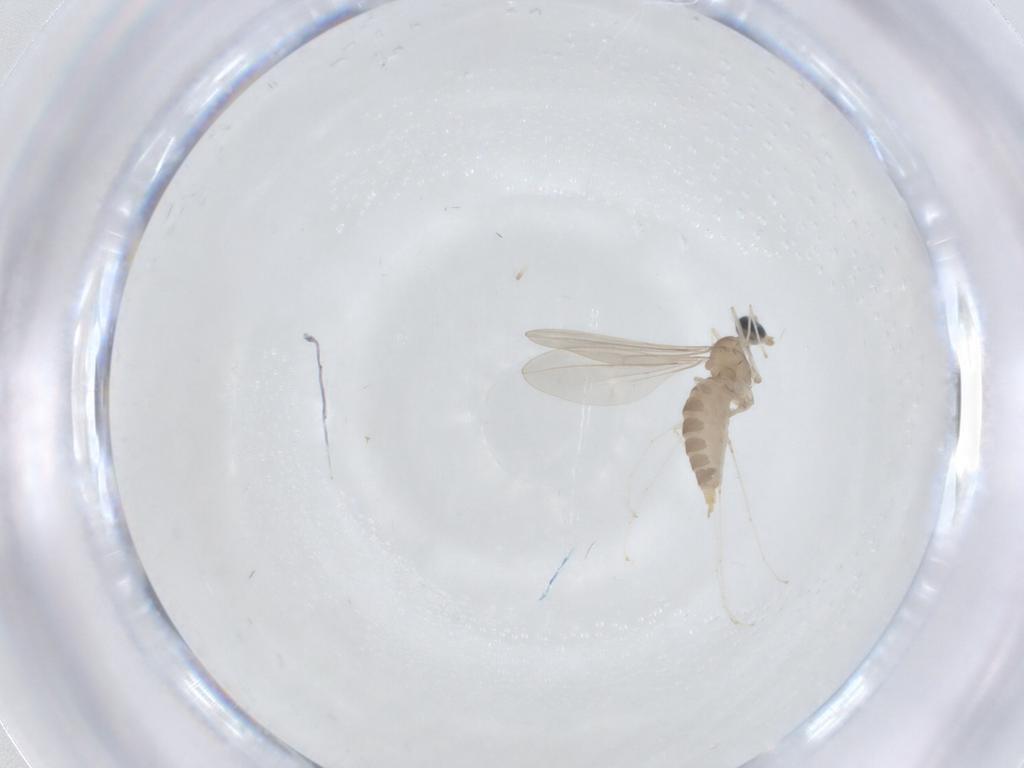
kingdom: Animalia
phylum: Arthropoda
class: Insecta
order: Diptera
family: Limoniidae
